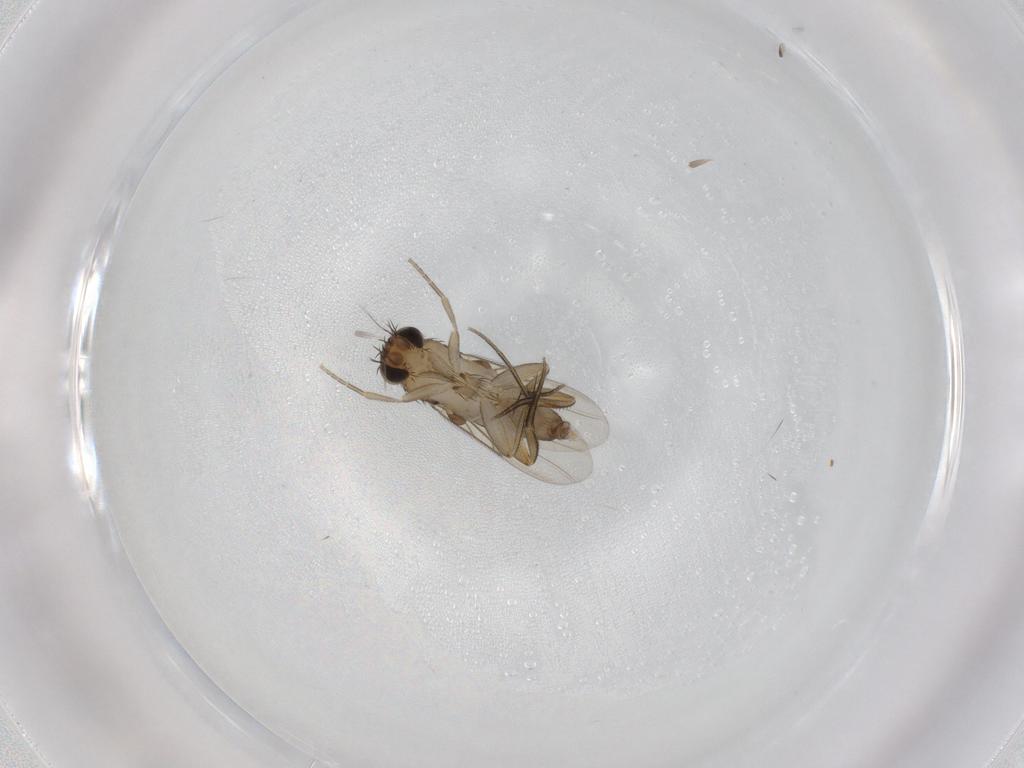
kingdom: Animalia
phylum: Arthropoda
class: Insecta
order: Diptera
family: Phoridae
